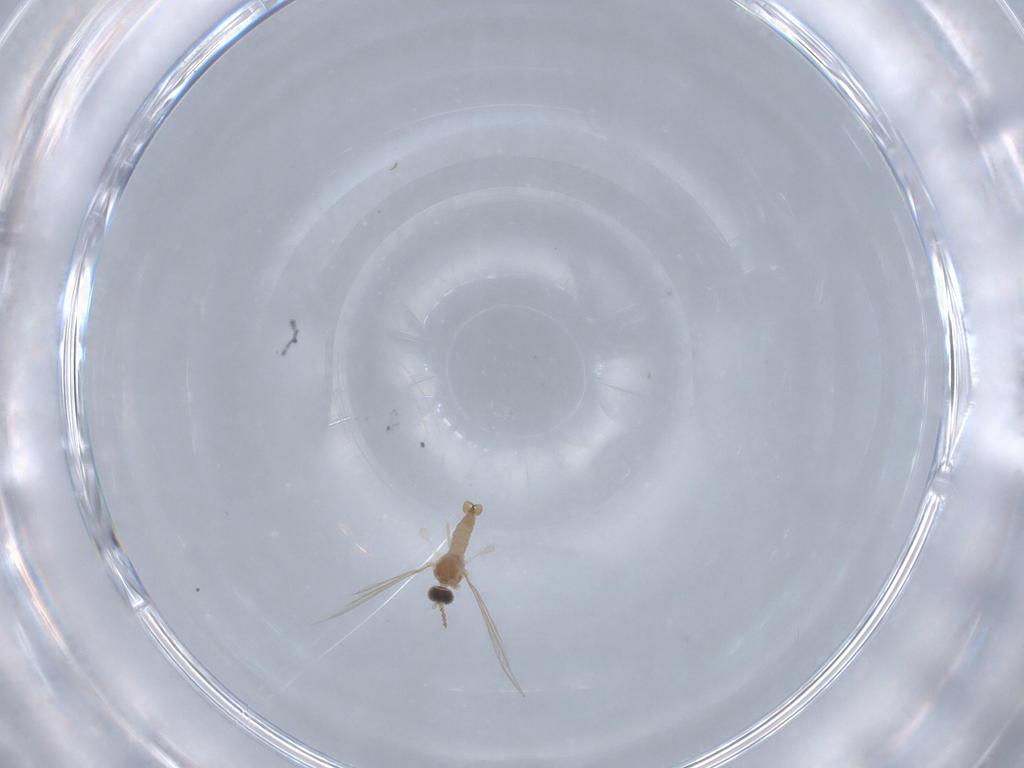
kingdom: Animalia
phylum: Arthropoda
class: Insecta
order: Diptera
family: Cecidomyiidae
